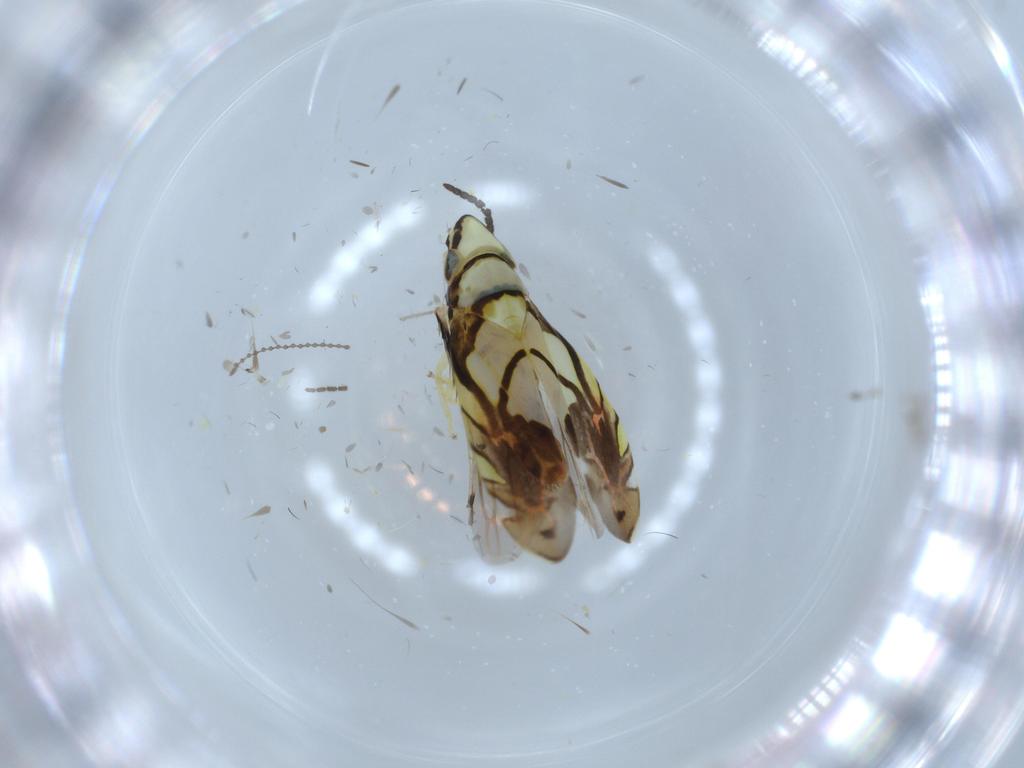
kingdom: Animalia
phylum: Arthropoda
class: Insecta
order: Hemiptera
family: Cicadellidae
